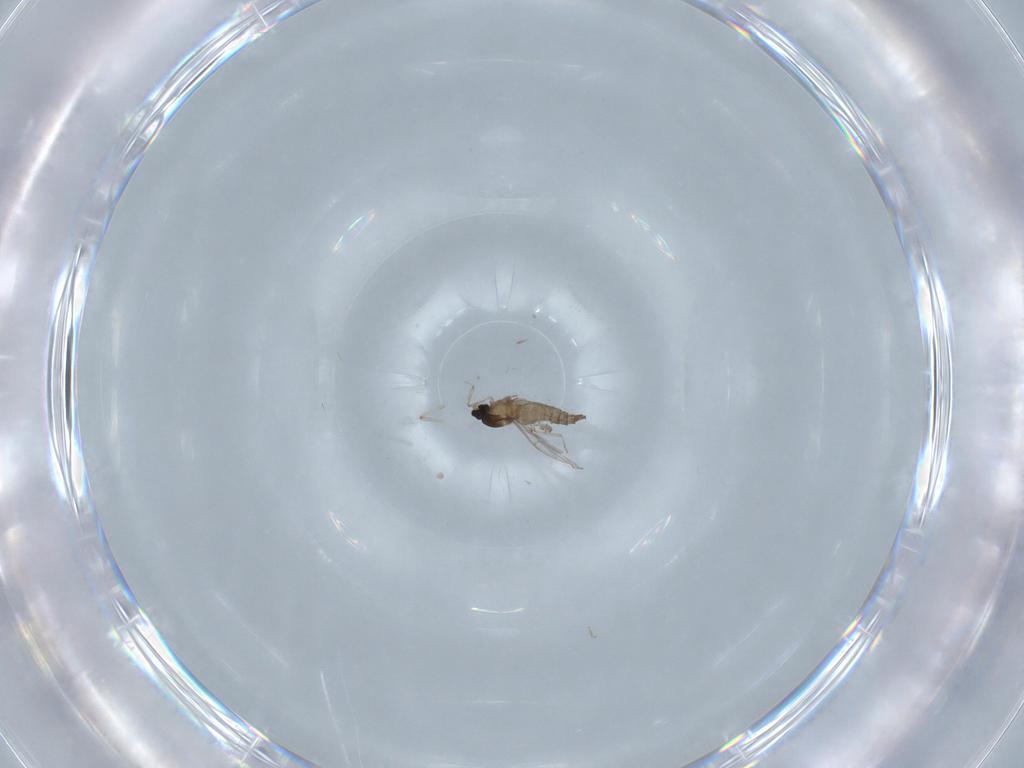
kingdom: Animalia
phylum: Arthropoda
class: Insecta
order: Diptera
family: Cecidomyiidae
